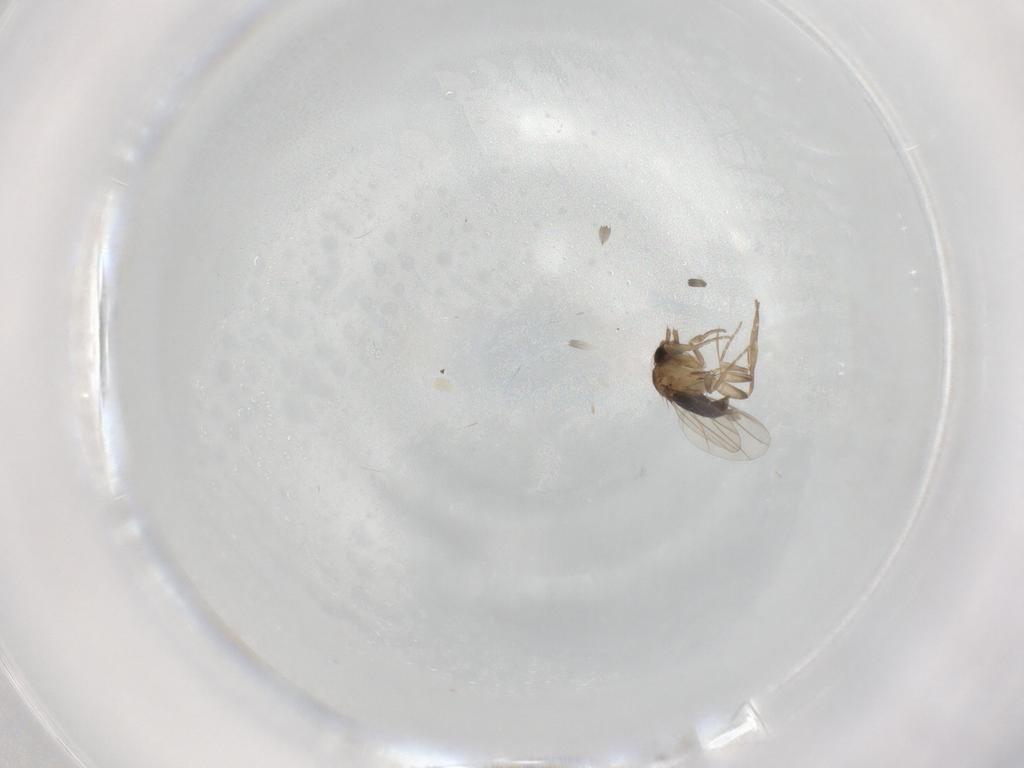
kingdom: Animalia
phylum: Arthropoda
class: Insecta
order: Diptera
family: Phoridae
